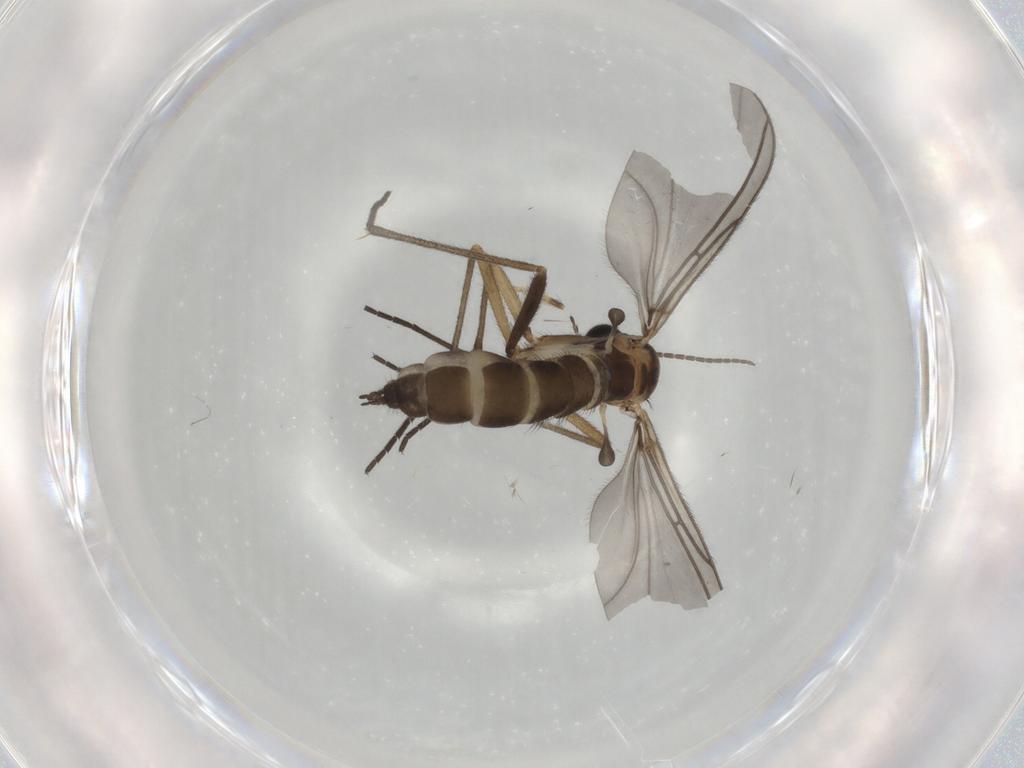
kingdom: Animalia
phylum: Arthropoda
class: Insecta
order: Diptera
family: Sciaridae
